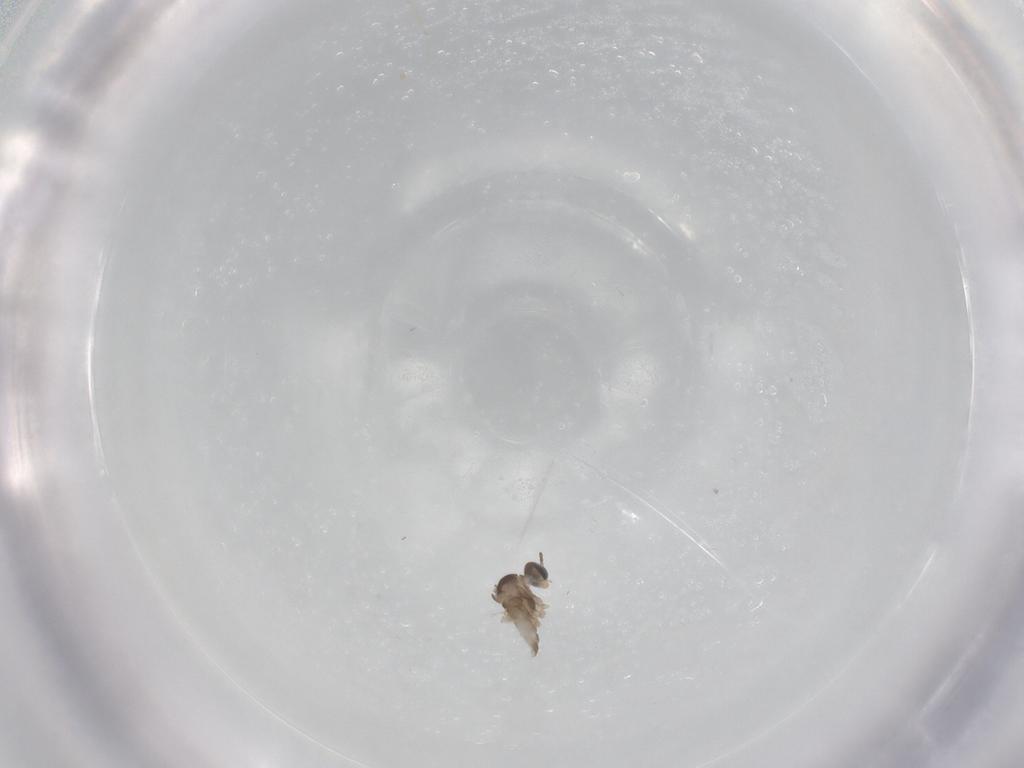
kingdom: Animalia
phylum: Arthropoda
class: Insecta
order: Diptera
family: Cecidomyiidae
